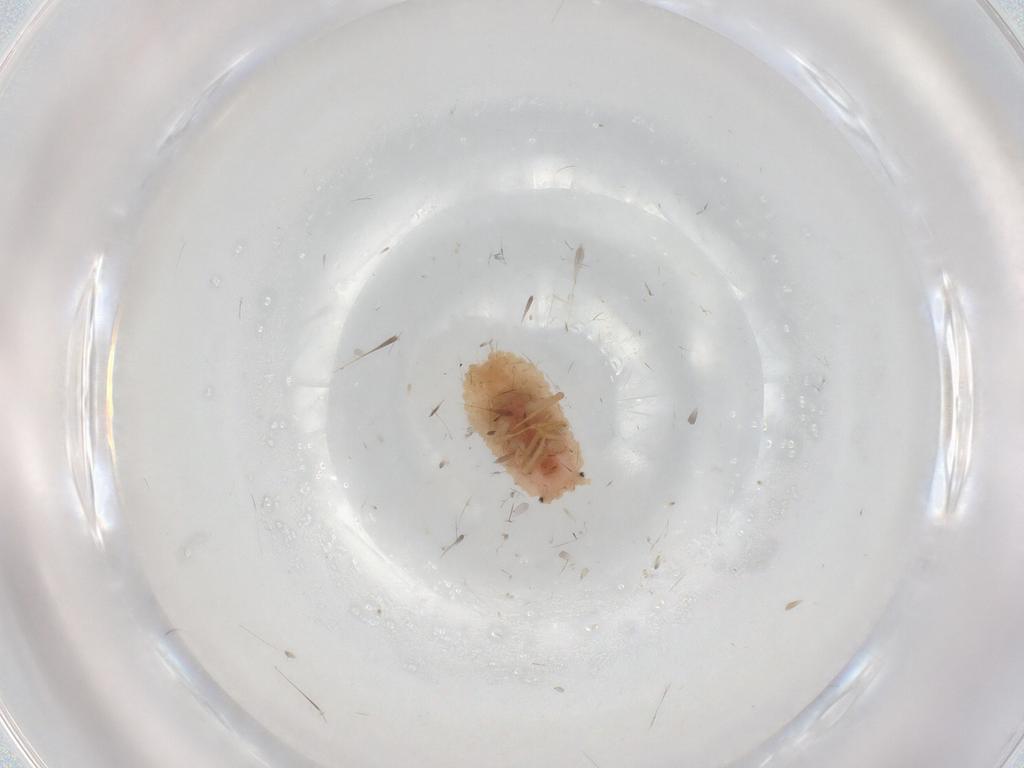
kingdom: Animalia
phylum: Arthropoda
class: Insecta
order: Hemiptera
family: Coccoidea_incertae_sedis
